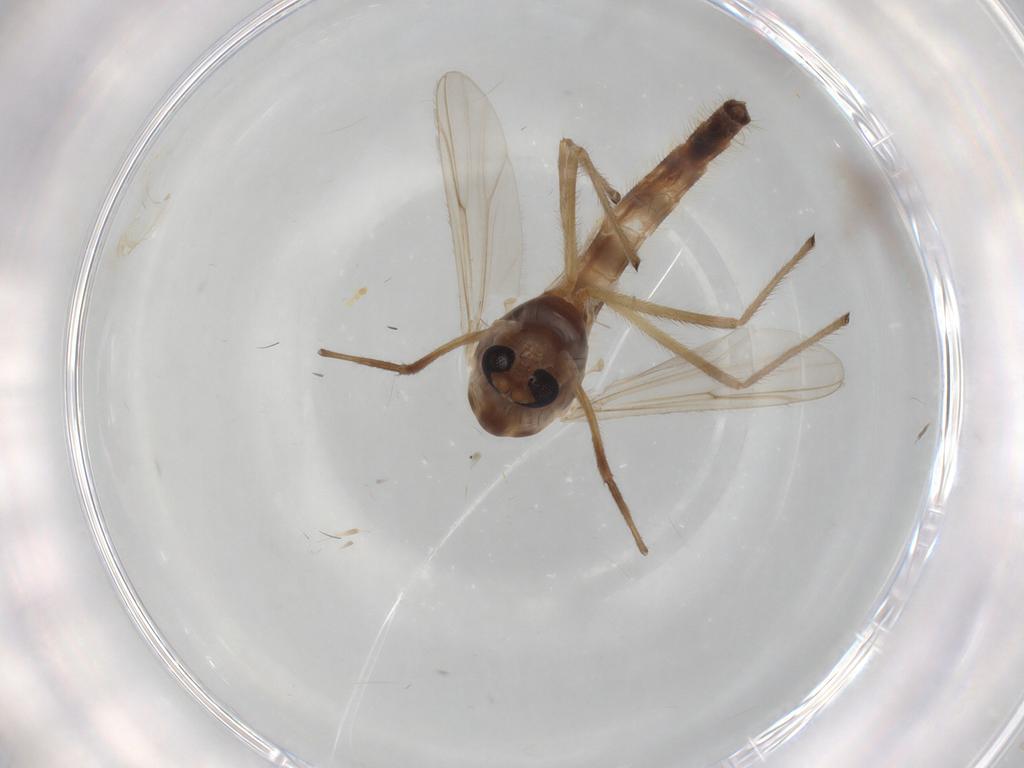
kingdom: Animalia
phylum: Arthropoda
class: Insecta
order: Diptera
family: Chironomidae
